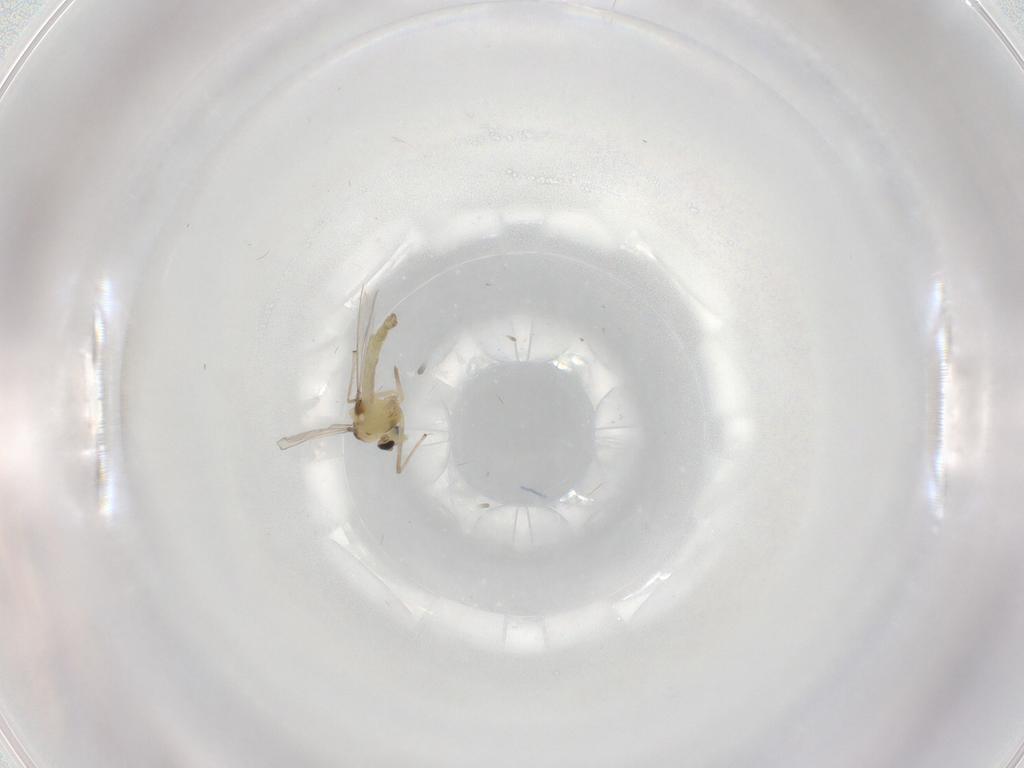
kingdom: Animalia
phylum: Arthropoda
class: Insecta
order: Diptera
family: Chironomidae
